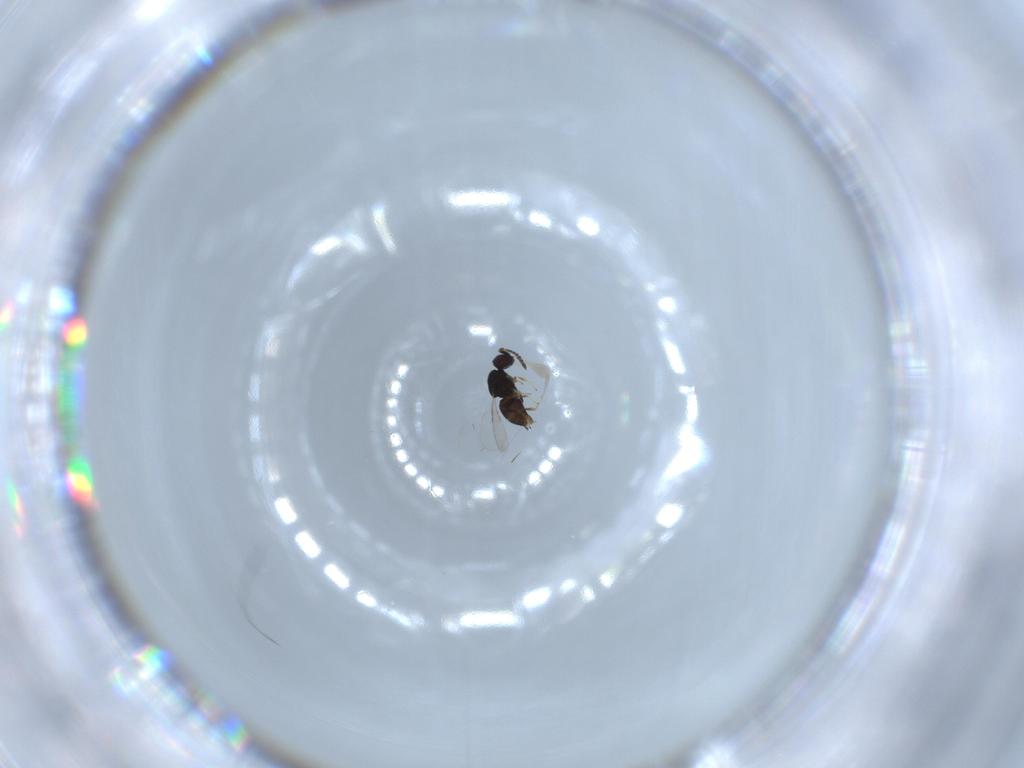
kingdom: Animalia
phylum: Arthropoda
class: Insecta
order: Hymenoptera
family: Ceraphronidae
